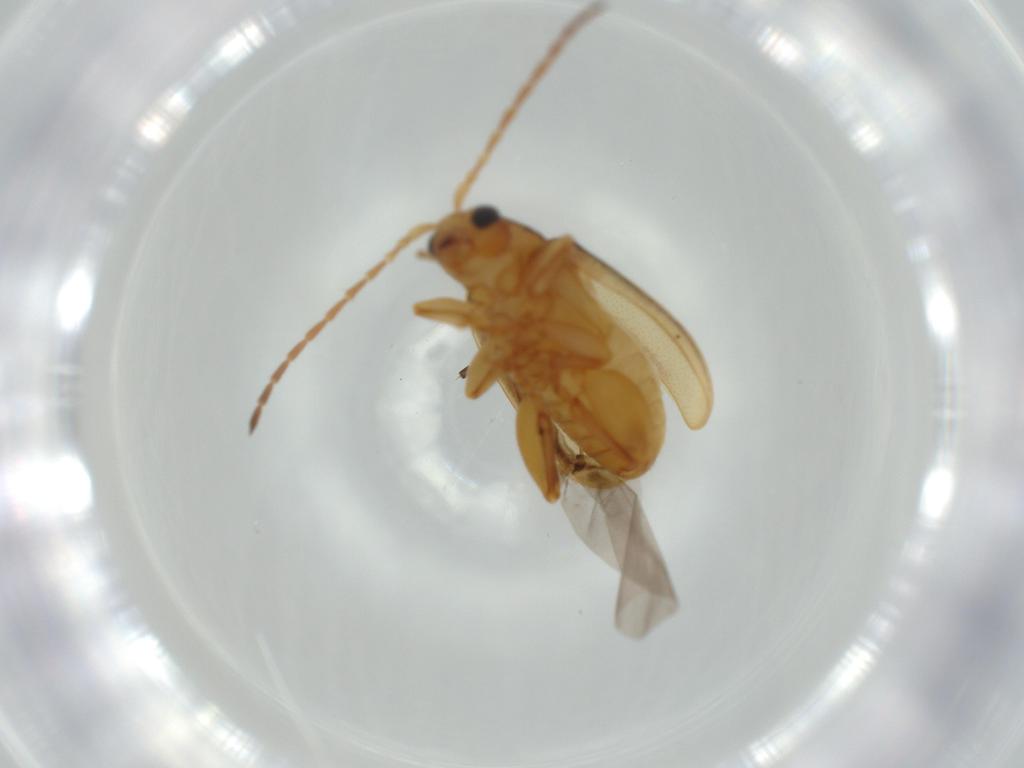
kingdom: Animalia
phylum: Arthropoda
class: Insecta
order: Coleoptera
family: Chrysomelidae
